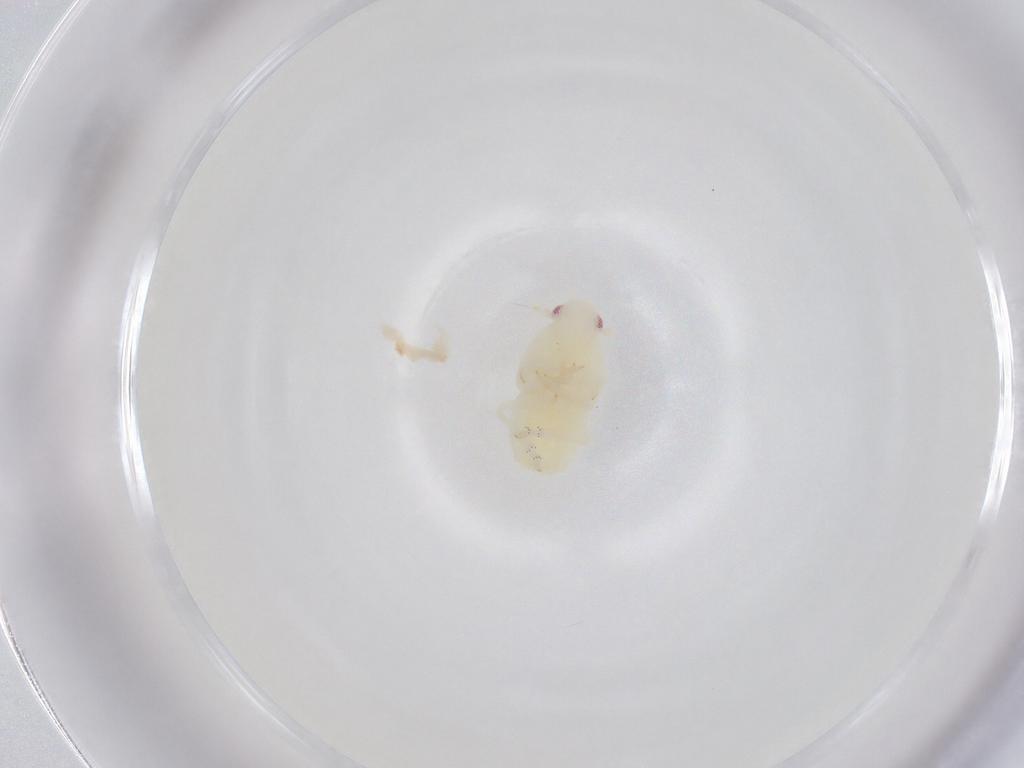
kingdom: Animalia
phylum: Arthropoda
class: Insecta
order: Hemiptera
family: Flatidae
